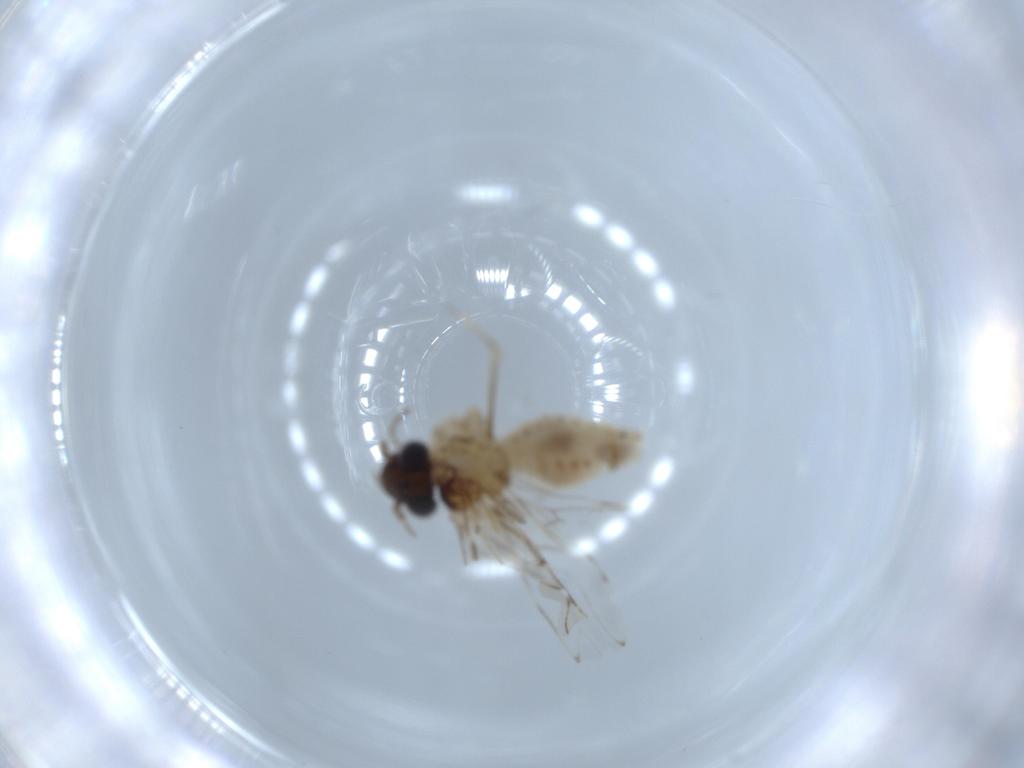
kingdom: Animalia
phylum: Arthropoda
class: Insecta
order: Psocodea
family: Epipsocidae
